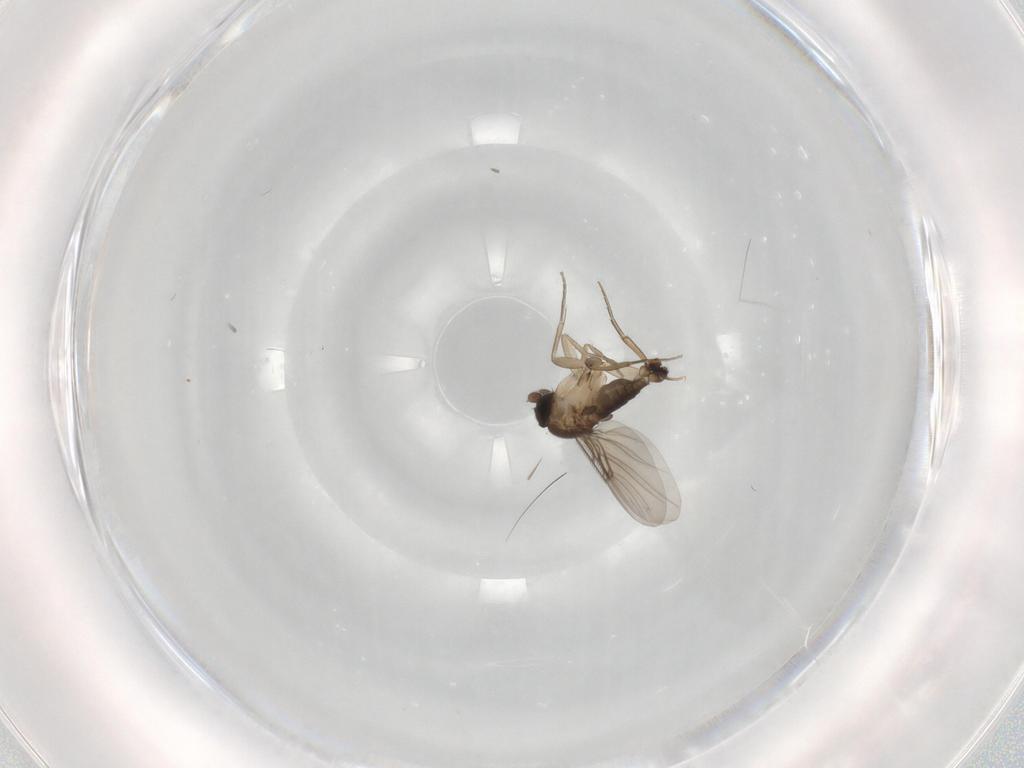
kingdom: Animalia
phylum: Arthropoda
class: Insecta
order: Diptera
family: Phoridae
